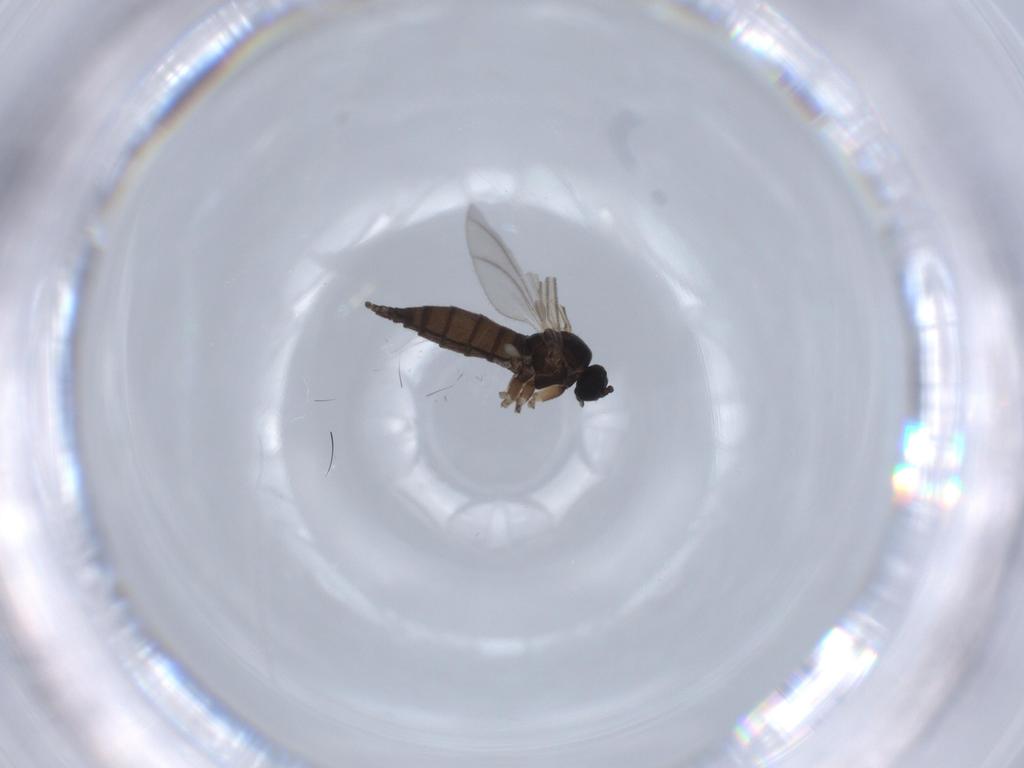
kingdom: Animalia
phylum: Arthropoda
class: Insecta
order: Diptera
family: Sciaridae
